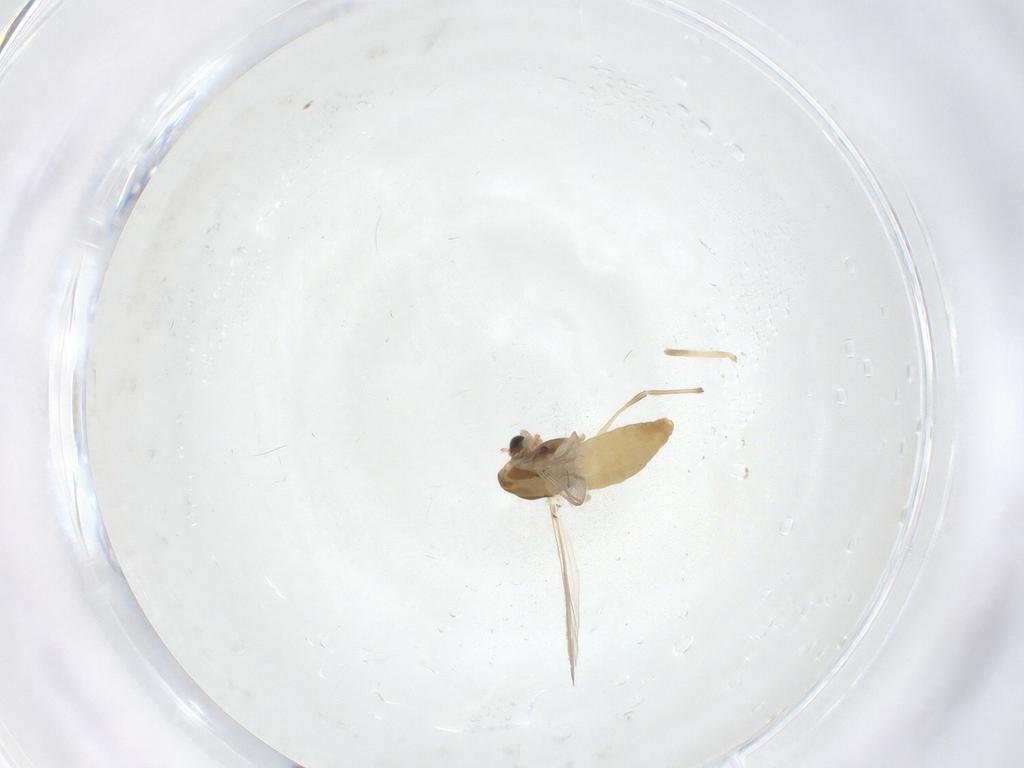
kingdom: Animalia
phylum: Arthropoda
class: Insecta
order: Diptera
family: Chironomidae
